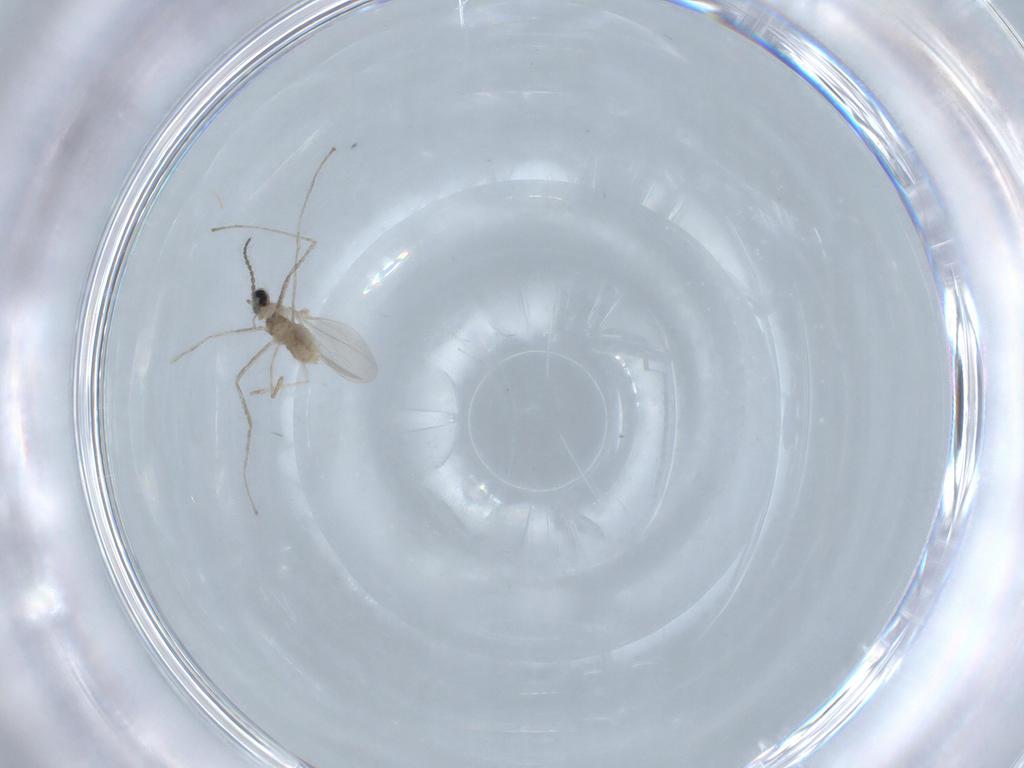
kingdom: Animalia
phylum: Arthropoda
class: Insecta
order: Diptera
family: Cecidomyiidae
